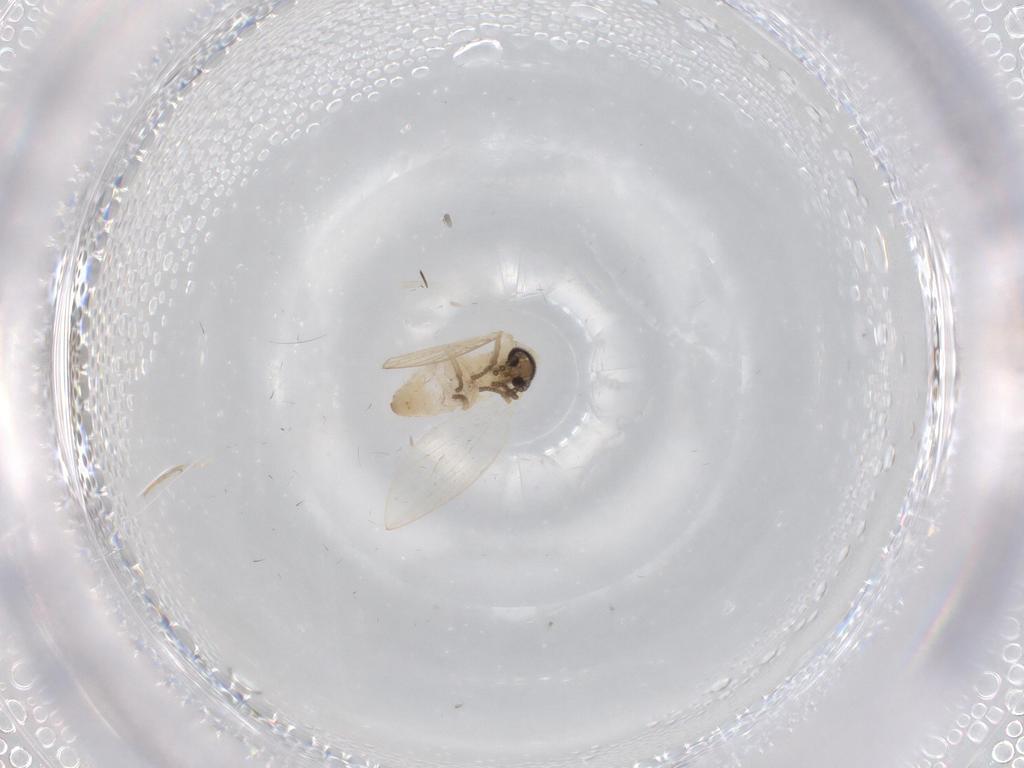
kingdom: Animalia
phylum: Arthropoda
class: Insecta
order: Diptera
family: Psychodidae
